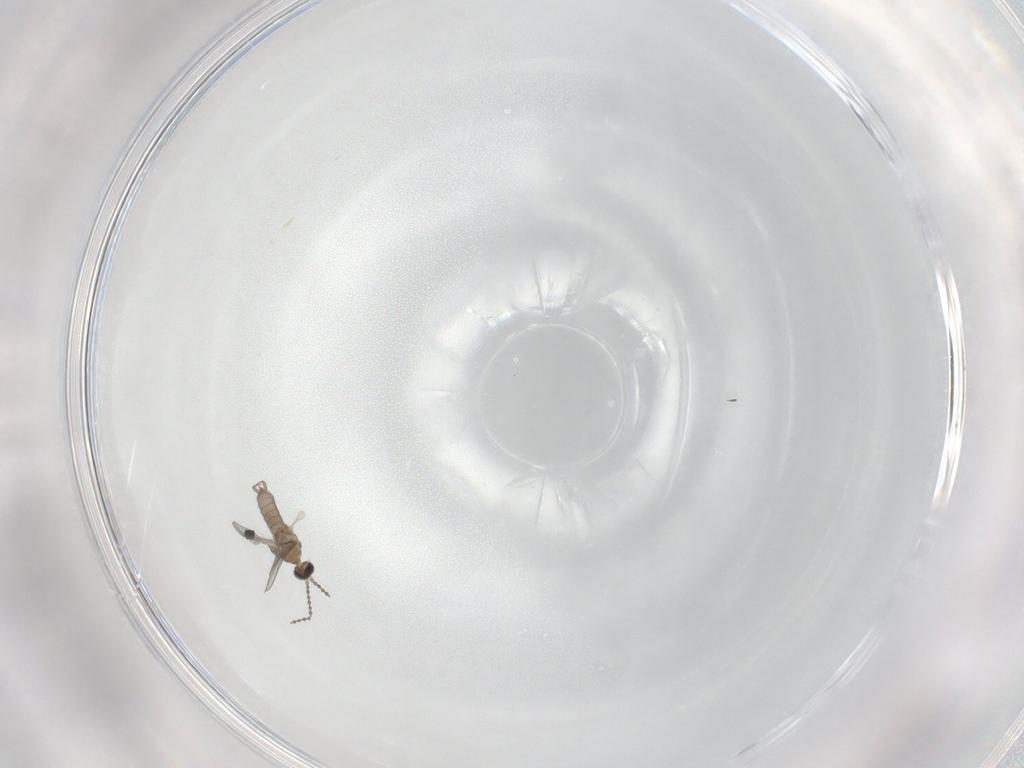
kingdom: Animalia
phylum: Arthropoda
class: Insecta
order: Diptera
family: Cecidomyiidae
